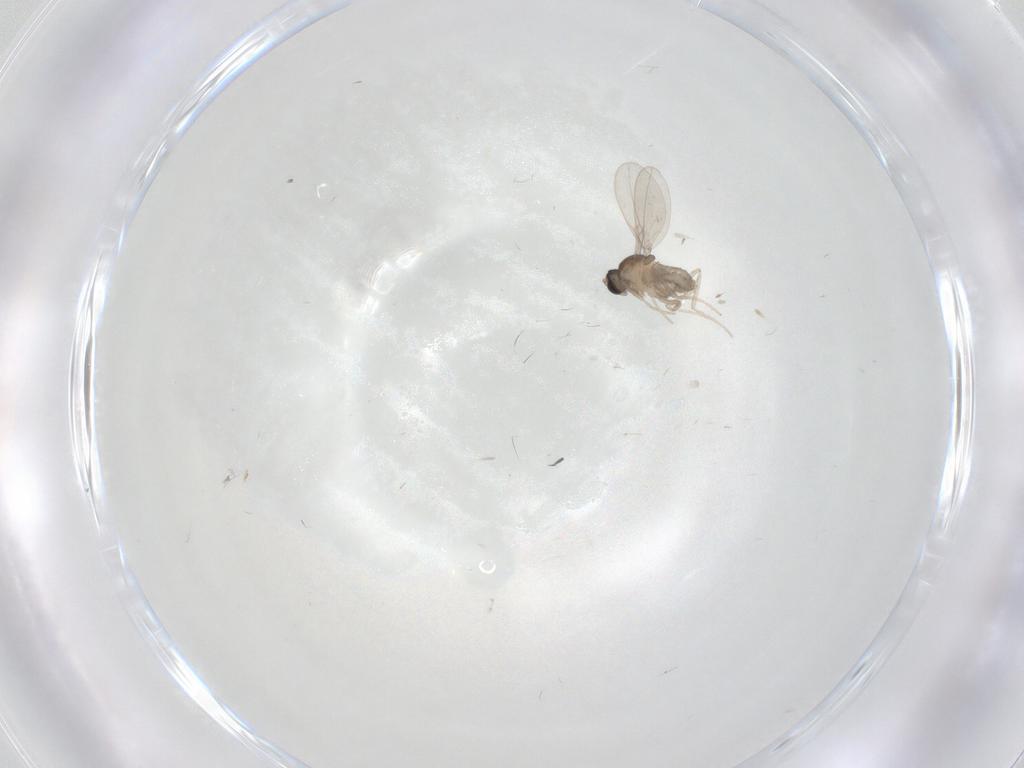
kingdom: Animalia
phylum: Arthropoda
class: Insecta
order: Diptera
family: Cecidomyiidae
